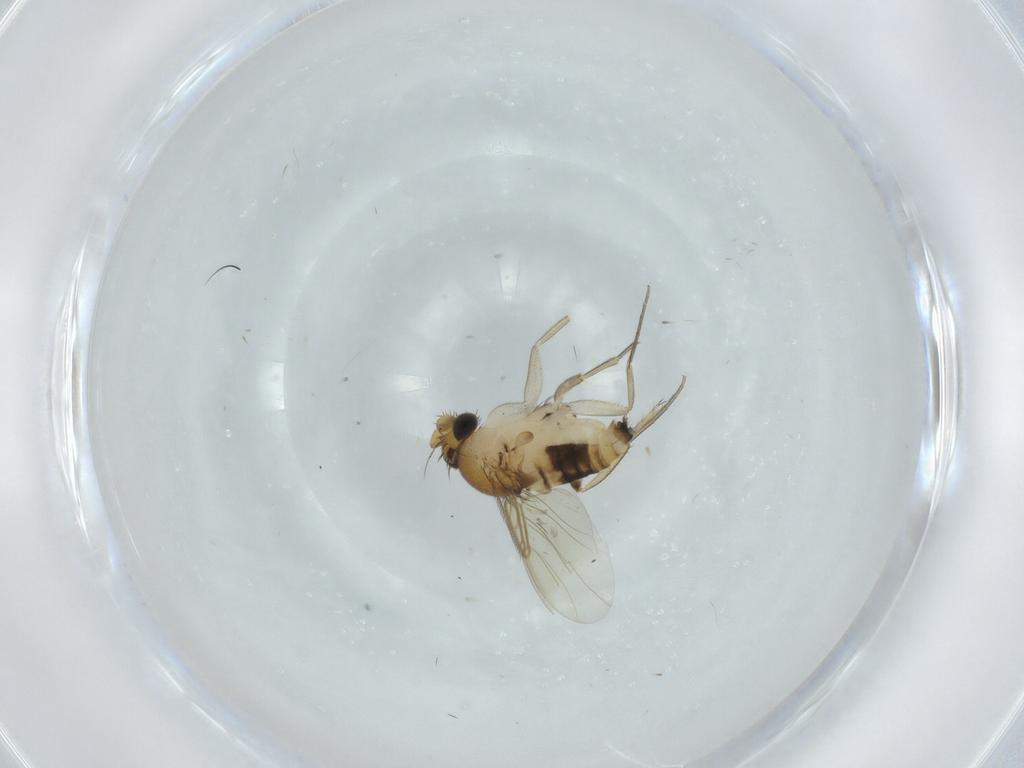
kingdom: Animalia
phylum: Arthropoda
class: Insecta
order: Diptera
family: Phoridae
